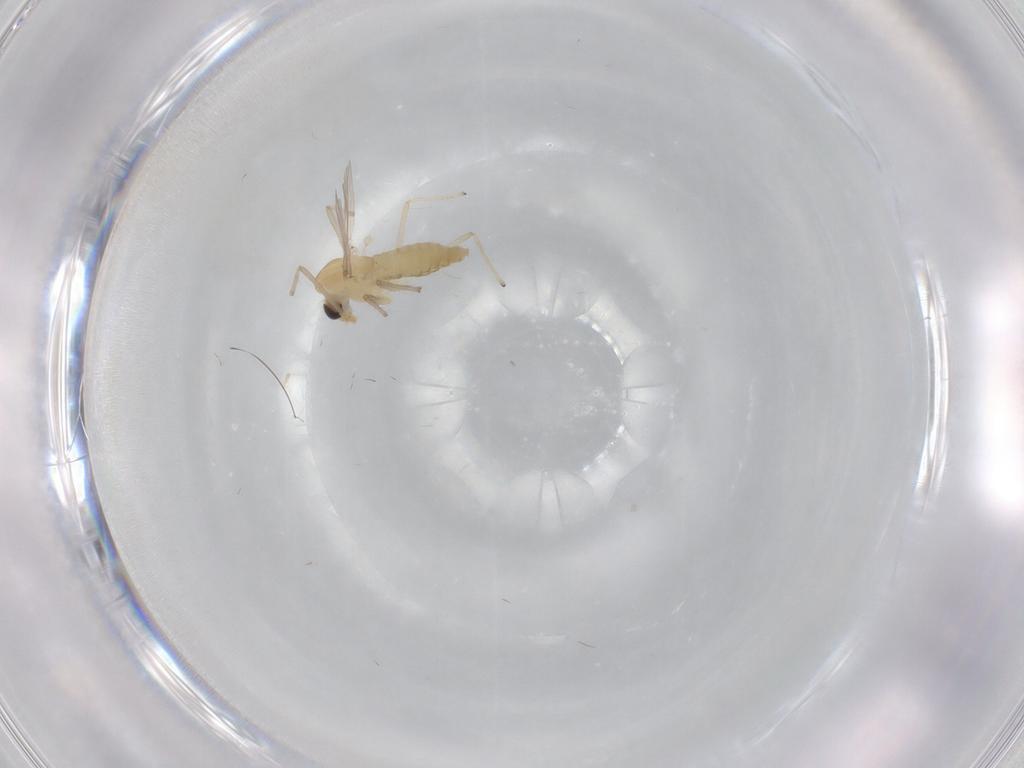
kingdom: Animalia
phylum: Arthropoda
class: Insecta
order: Diptera
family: Chironomidae
